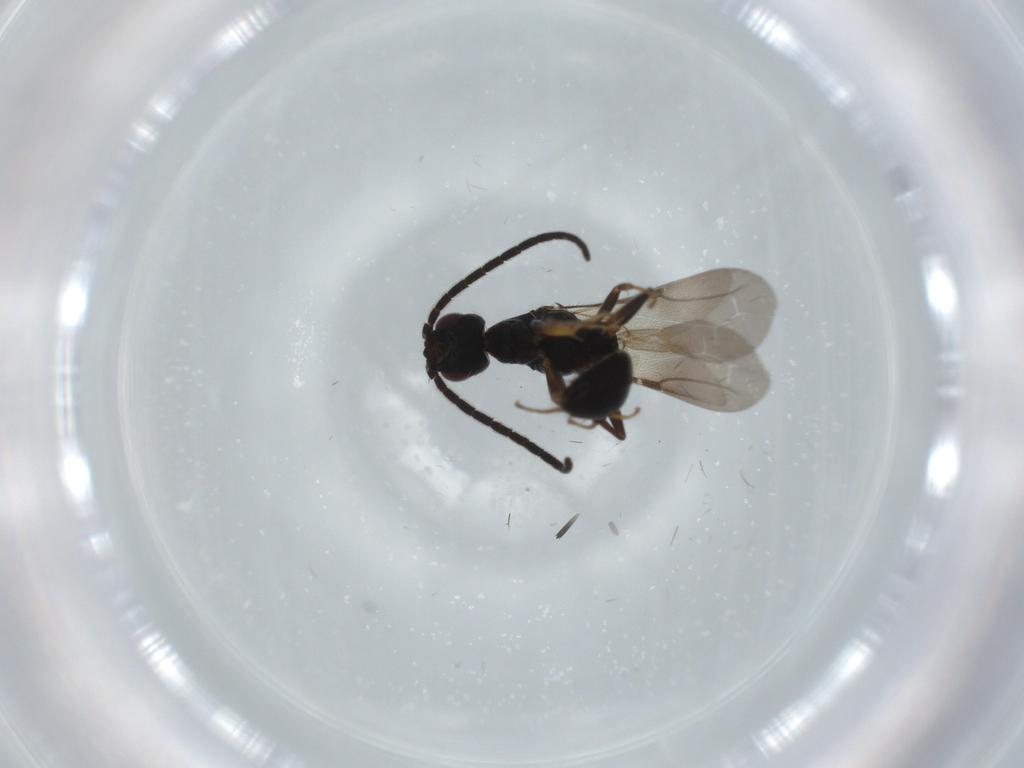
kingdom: Animalia
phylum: Arthropoda
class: Insecta
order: Hymenoptera
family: Bethylidae
